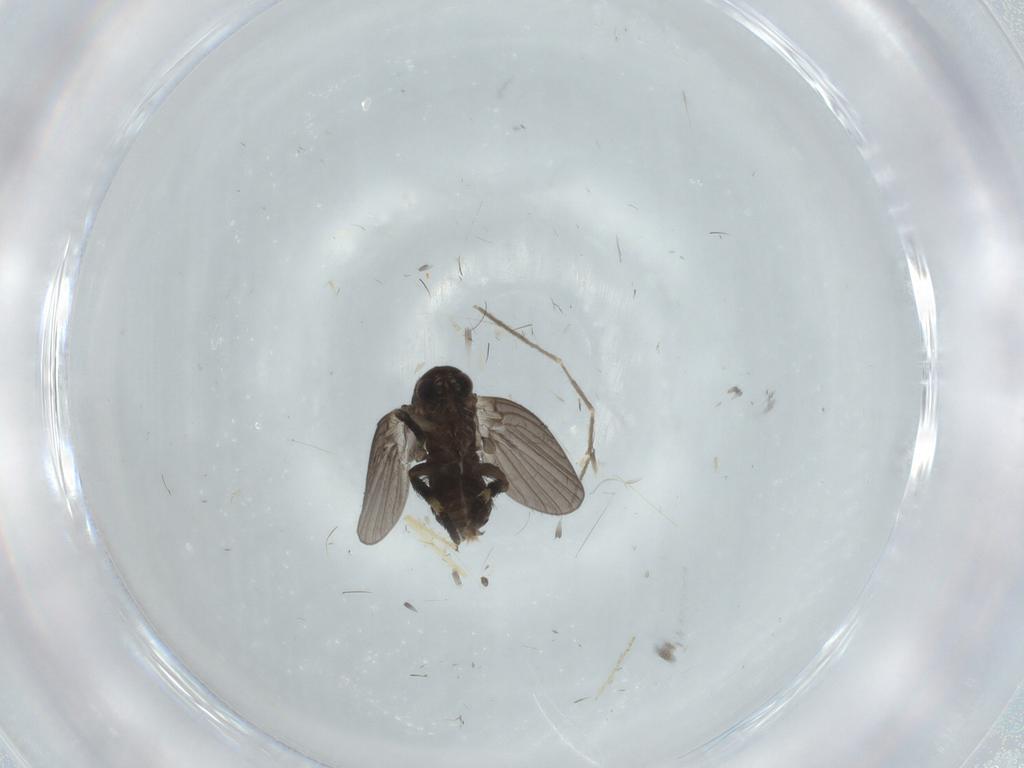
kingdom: Animalia
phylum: Arthropoda
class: Insecta
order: Diptera
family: Psychodidae
